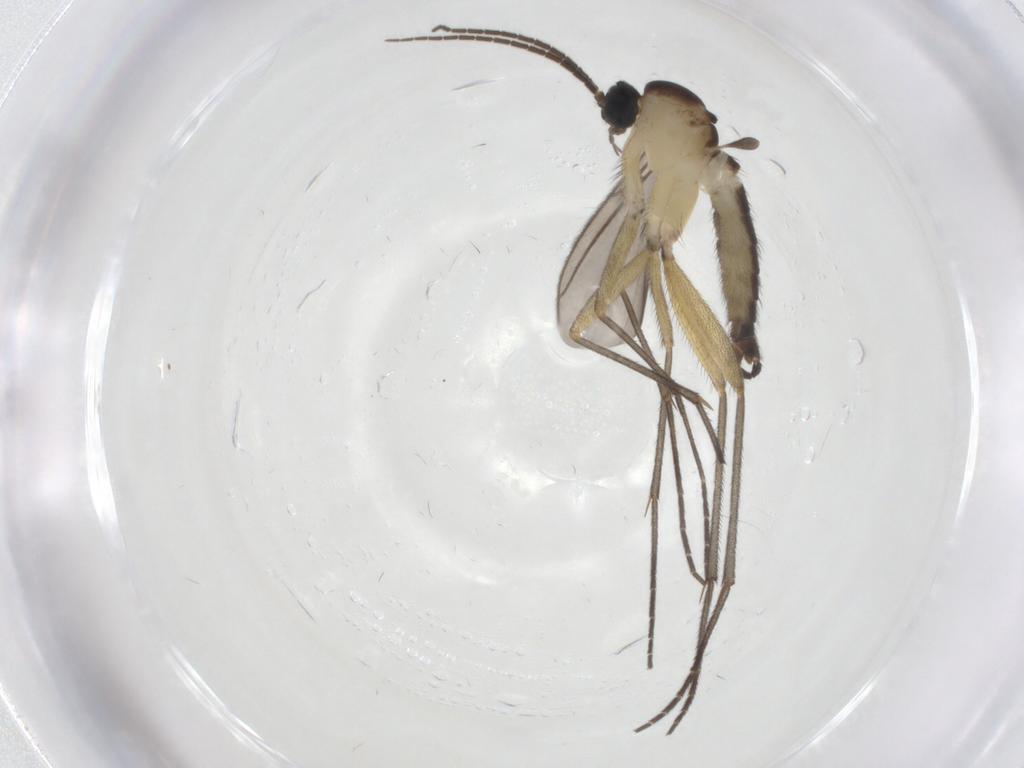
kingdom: Animalia
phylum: Arthropoda
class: Insecta
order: Diptera
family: Sciaridae
